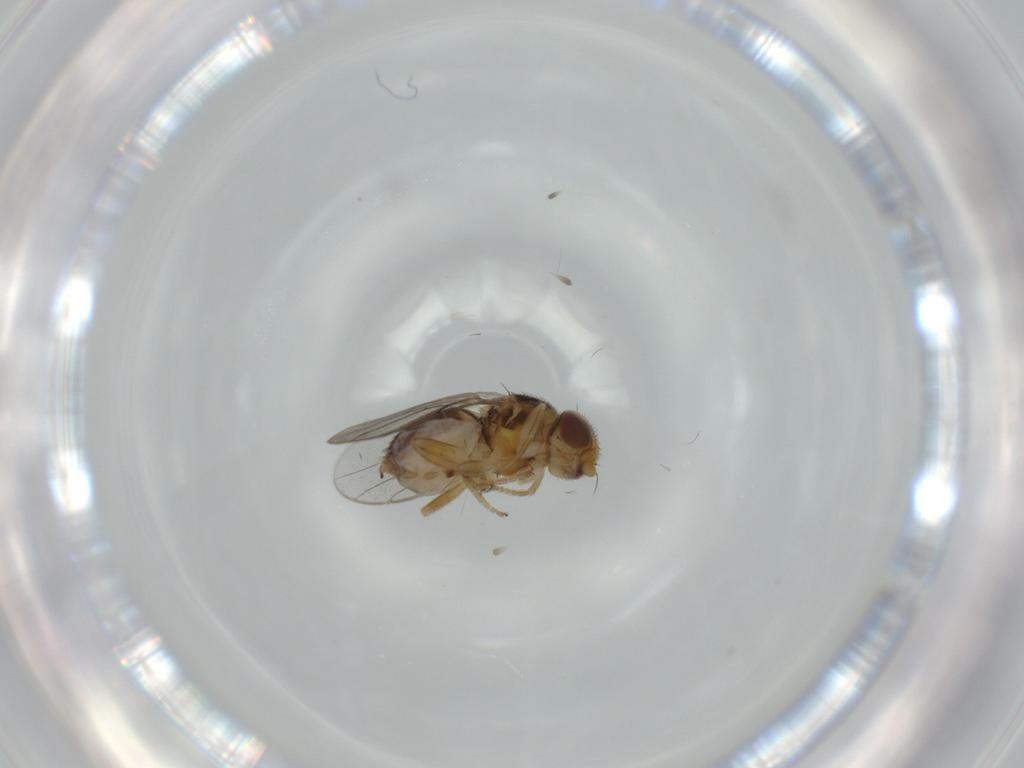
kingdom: Animalia
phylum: Arthropoda
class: Insecta
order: Diptera
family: Chloropidae
